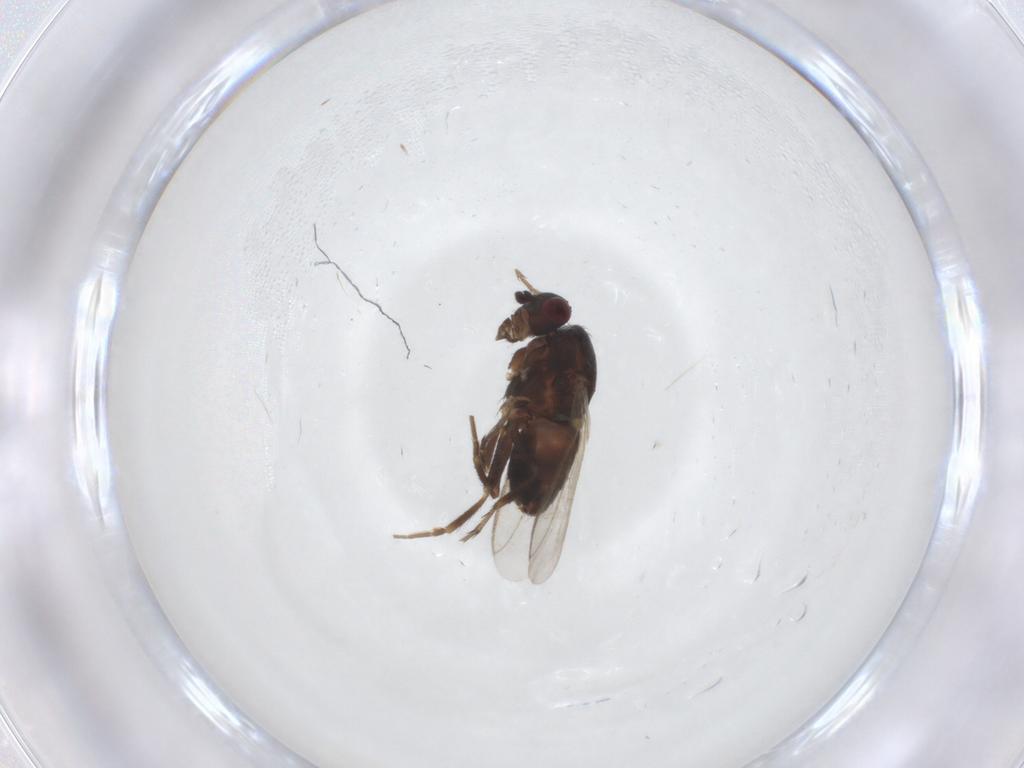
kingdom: Animalia
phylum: Arthropoda
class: Insecta
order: Diptera
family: Sphaeroceridae
